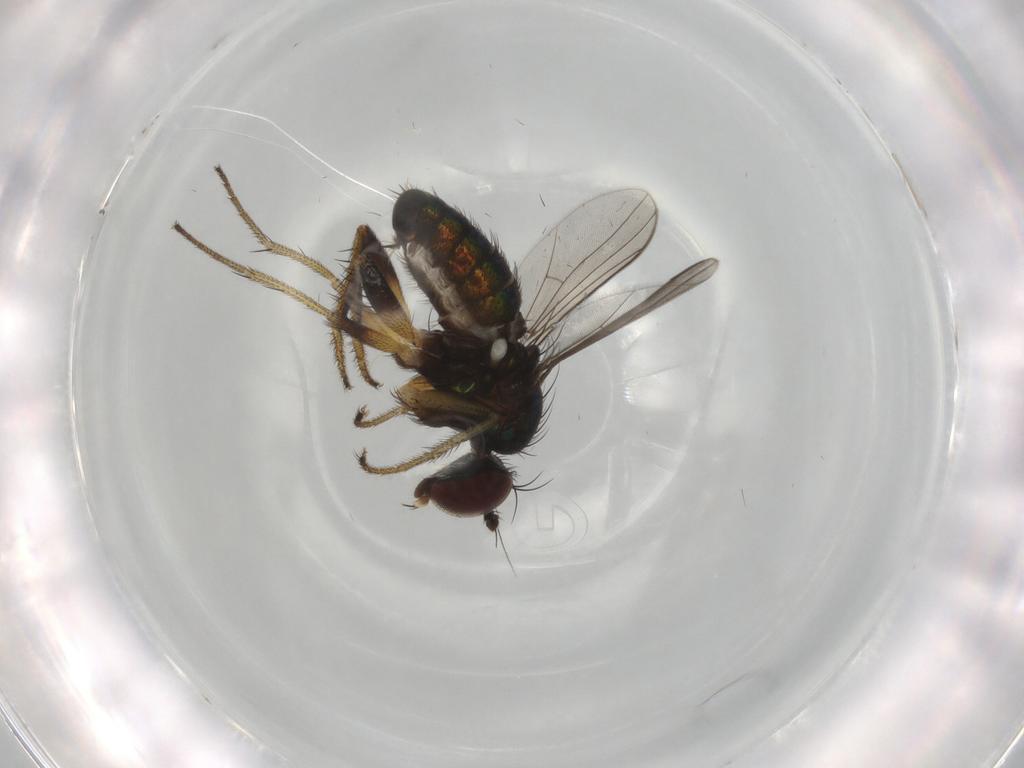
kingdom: Animalia
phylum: Arthropoda
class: Insecta
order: Diptera
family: Dolichopodidae
